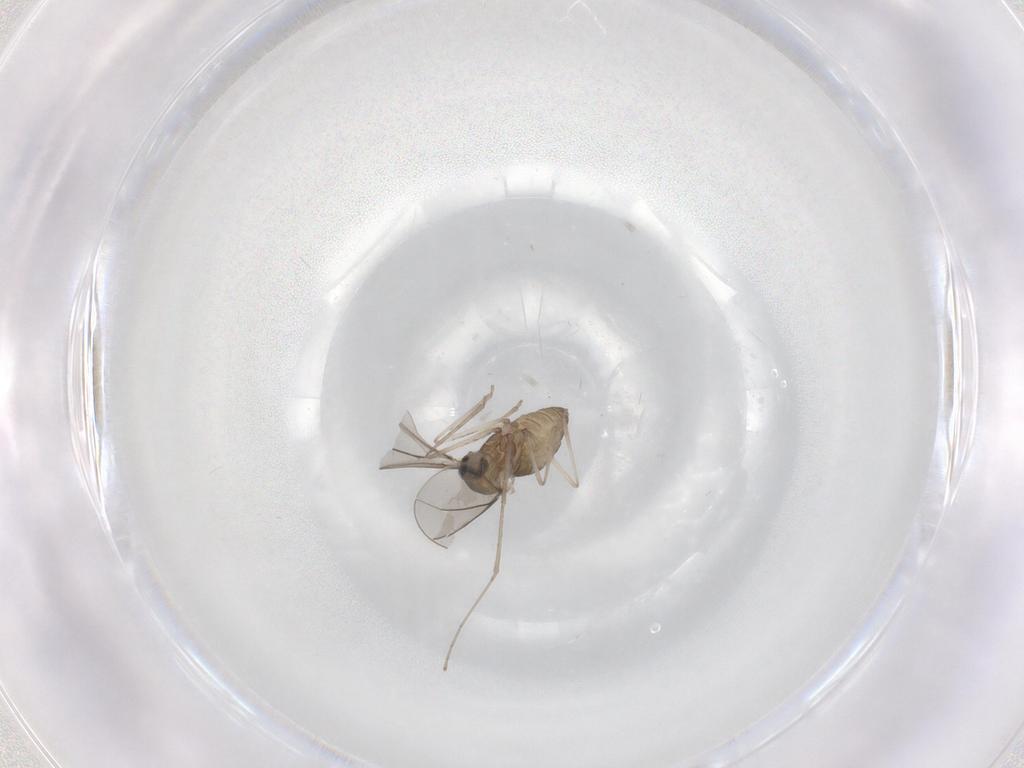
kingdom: Animalia
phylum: Arthropoda
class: Insecta
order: Diptera
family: Cecidomyiidae
